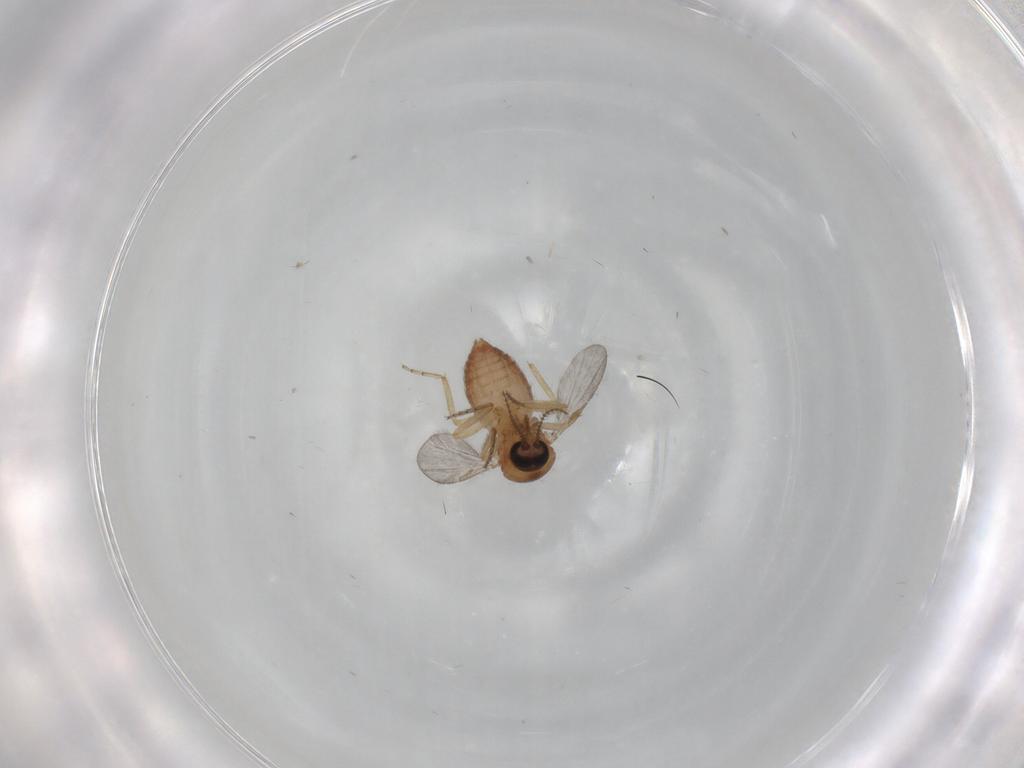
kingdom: Animalia
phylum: Arthropoda
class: Insecta
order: Diptera
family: Ceratopogonidae
